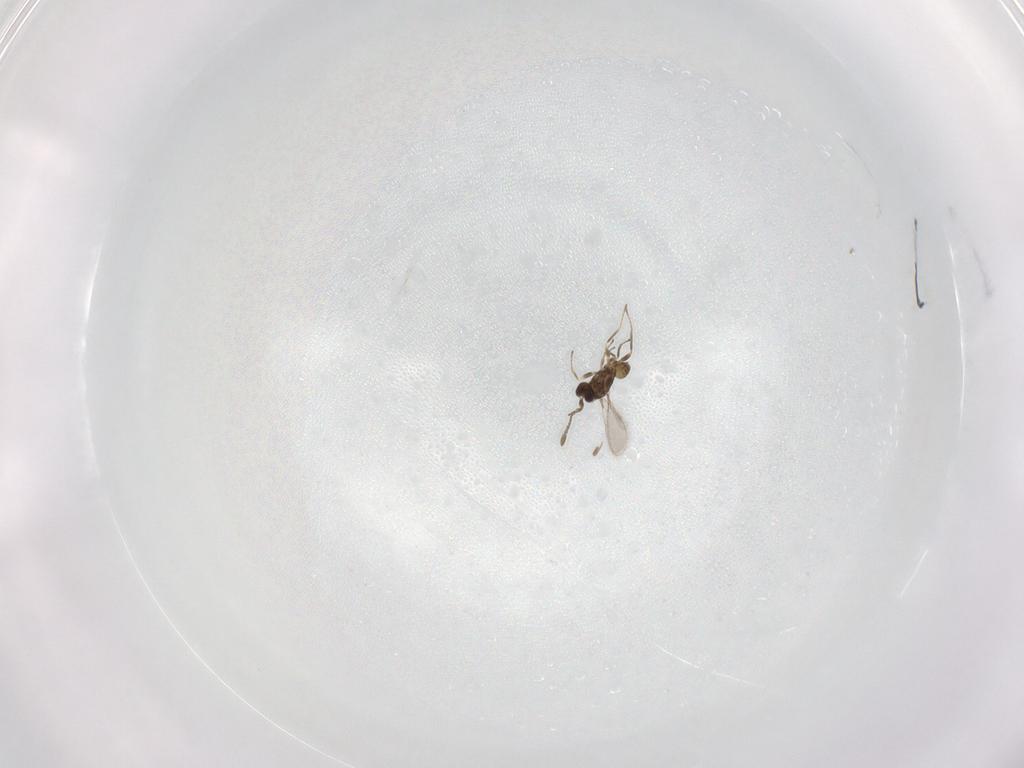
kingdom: Animalia
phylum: Arthropoda
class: Insecta
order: Hymenoptera
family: Mymaridae
